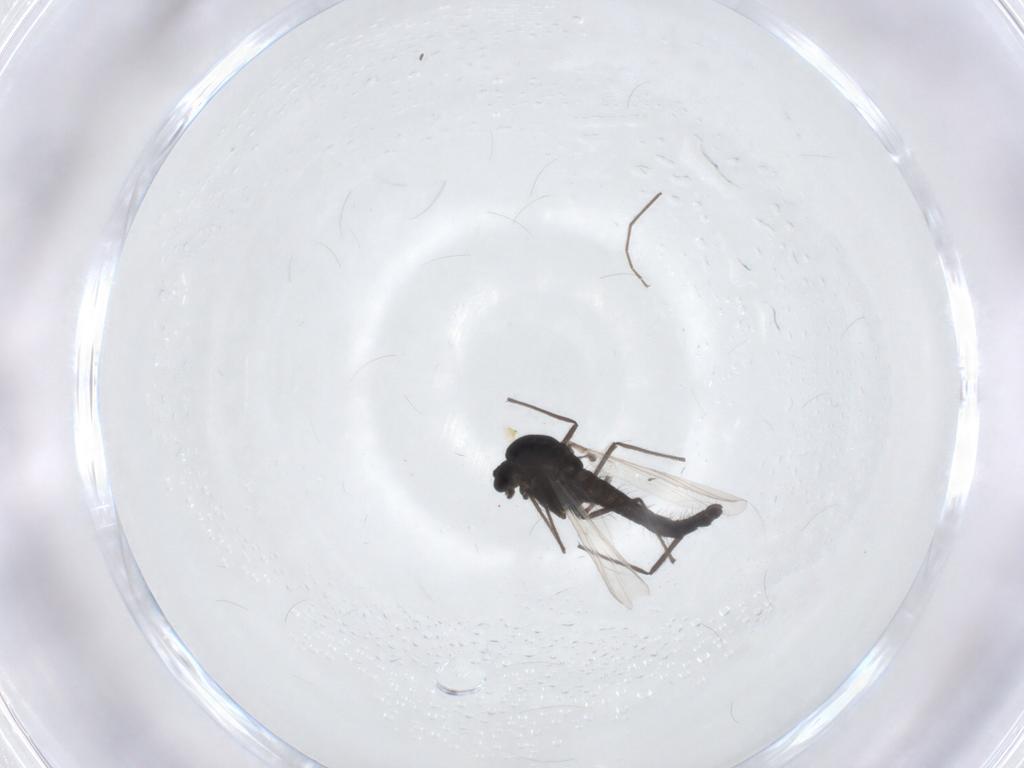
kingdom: Animalia
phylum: Arthropoda
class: Insecta
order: Diptera
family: Chironomidae
